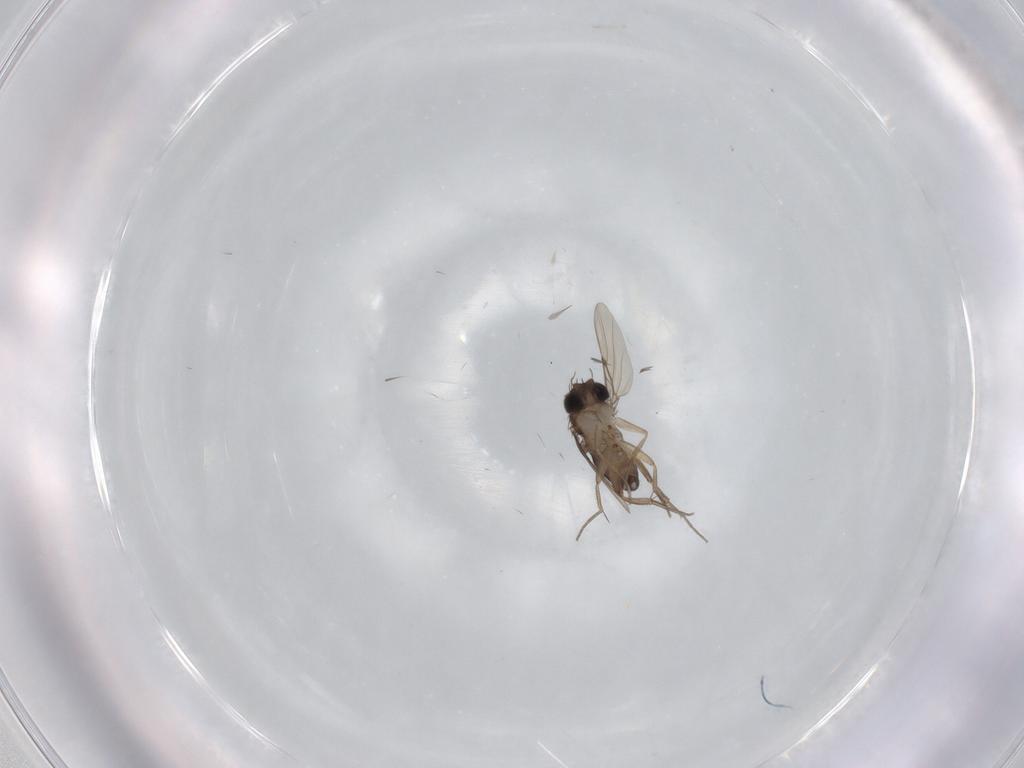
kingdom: Animalia
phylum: Arthropoda
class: Insecta
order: Diptera
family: Phoridae
